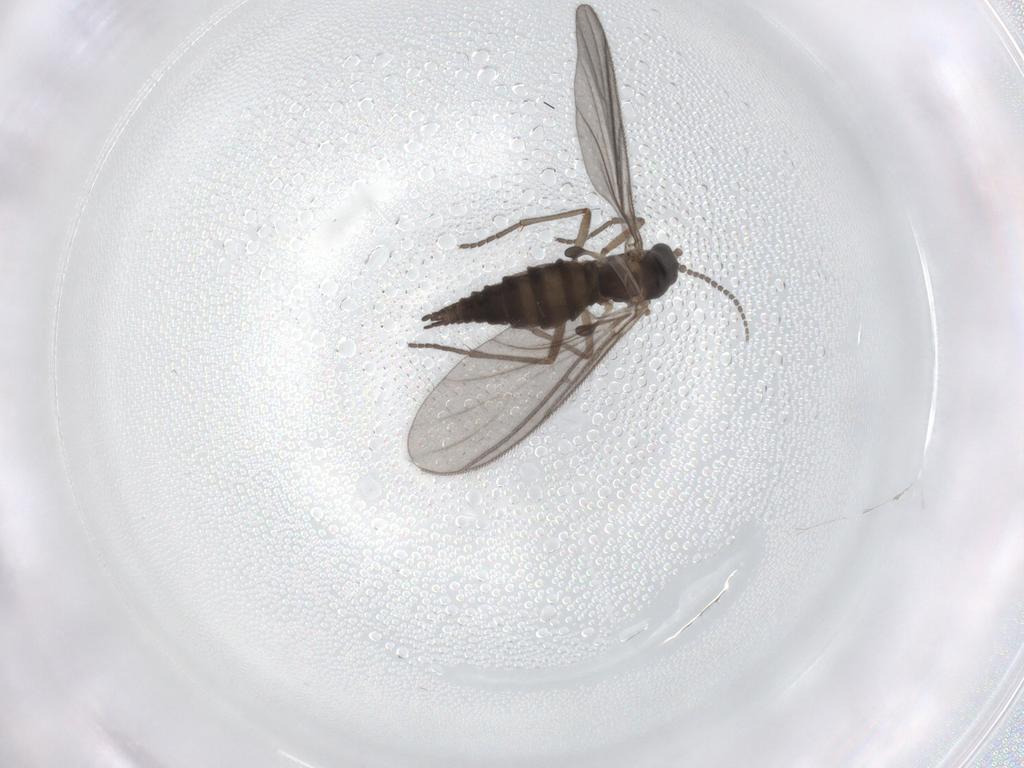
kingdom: Animalia
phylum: Arthropoda
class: Insecta
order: Diptera
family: Sciaridae
